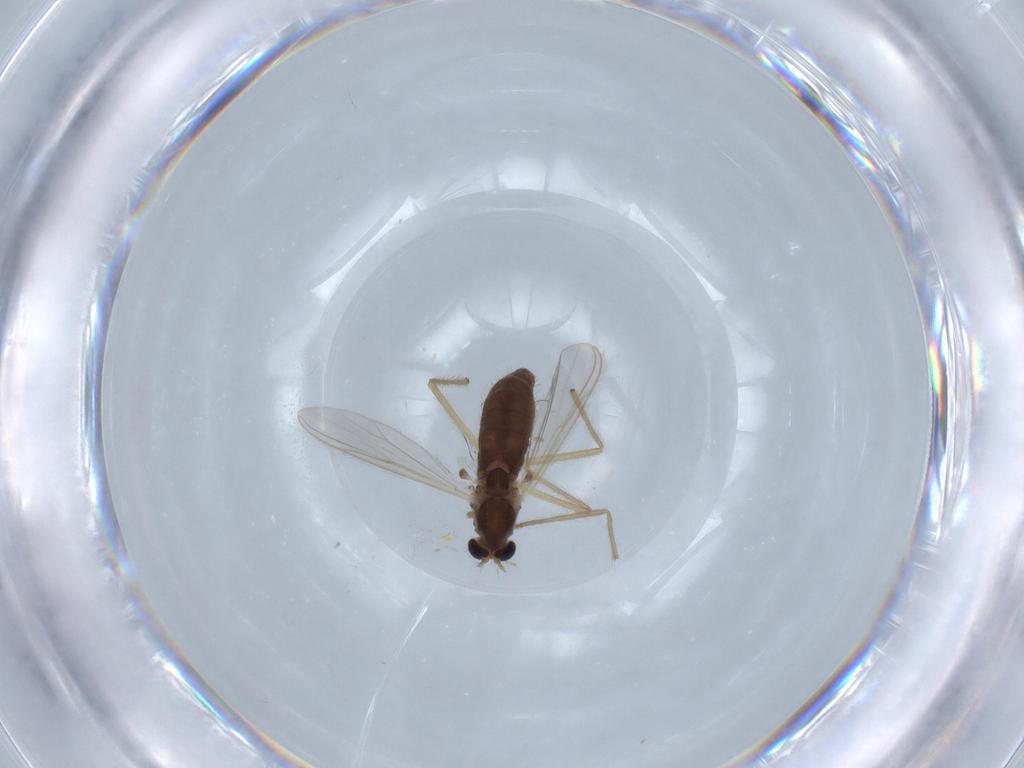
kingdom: Animalia
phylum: Arthropoda
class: Insecta
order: Diptera
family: Chironomidae
